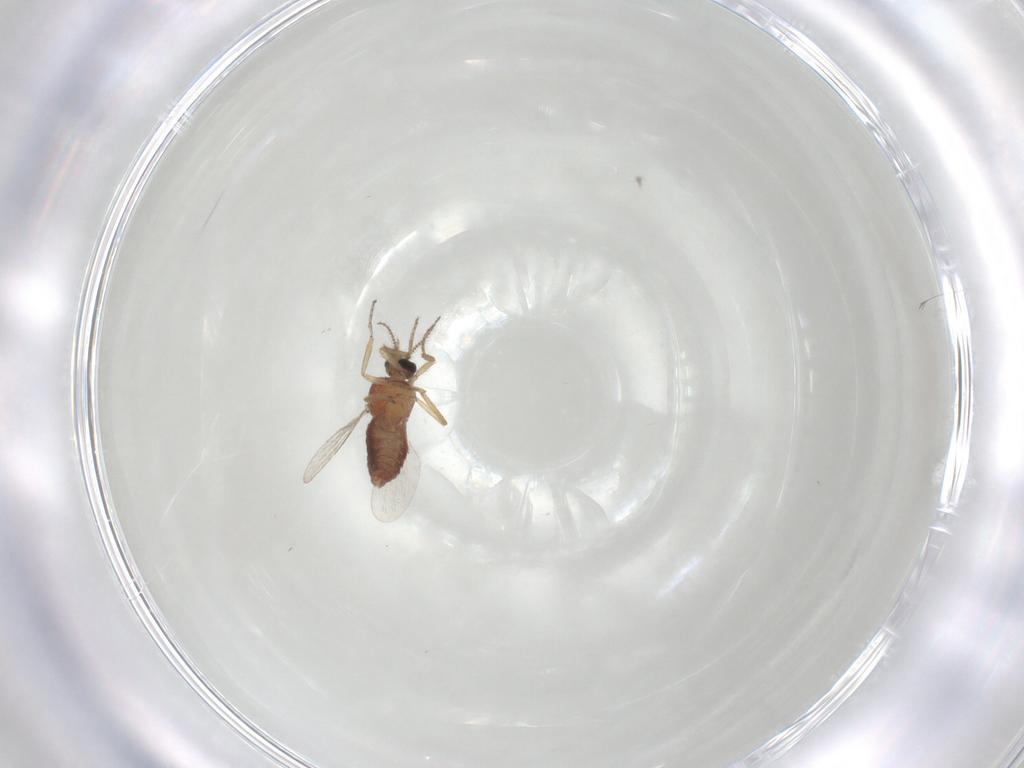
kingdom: Animalia
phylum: Arthropoda
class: Insecta
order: Diptera
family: Ceratopogonidae
